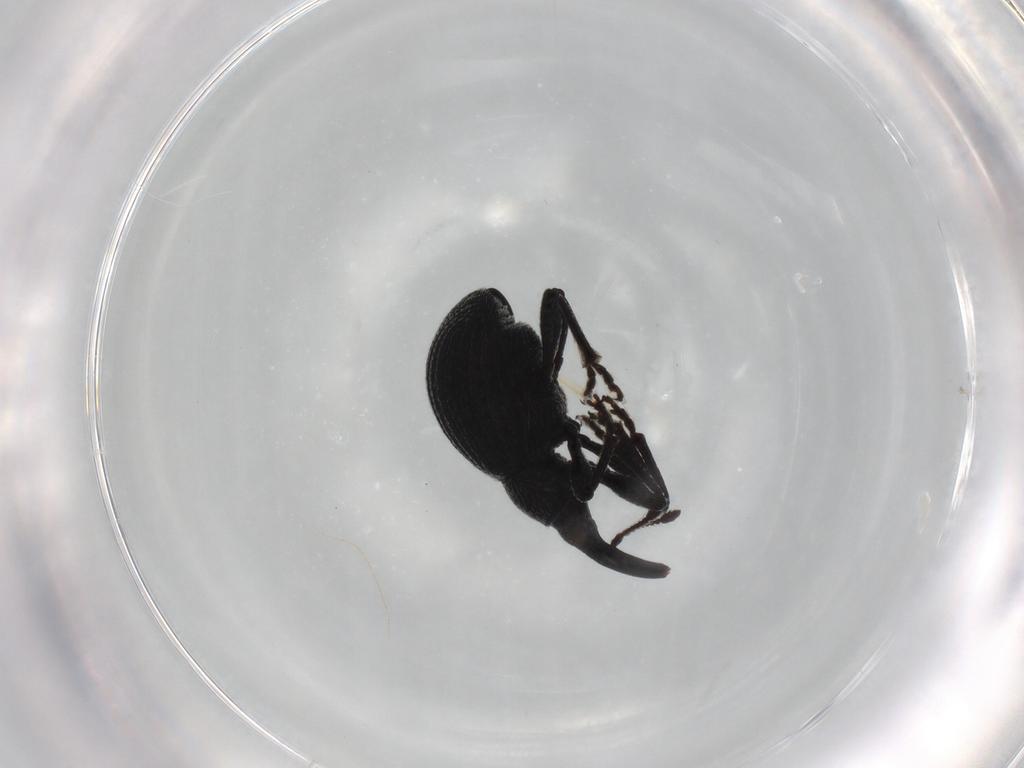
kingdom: Animalia
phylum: Arthropoda
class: Insecta
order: Coleoptera
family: Brentidae
